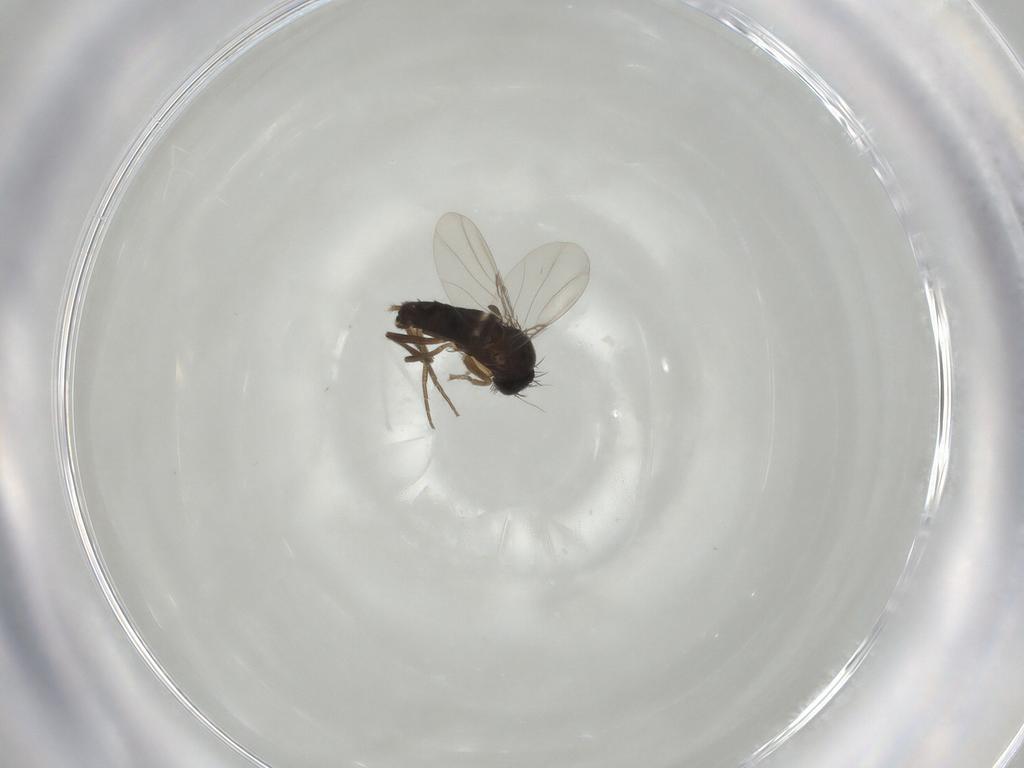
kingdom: Animalia
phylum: Arthropoda
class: Insecta
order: Diptera
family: Phoridae
